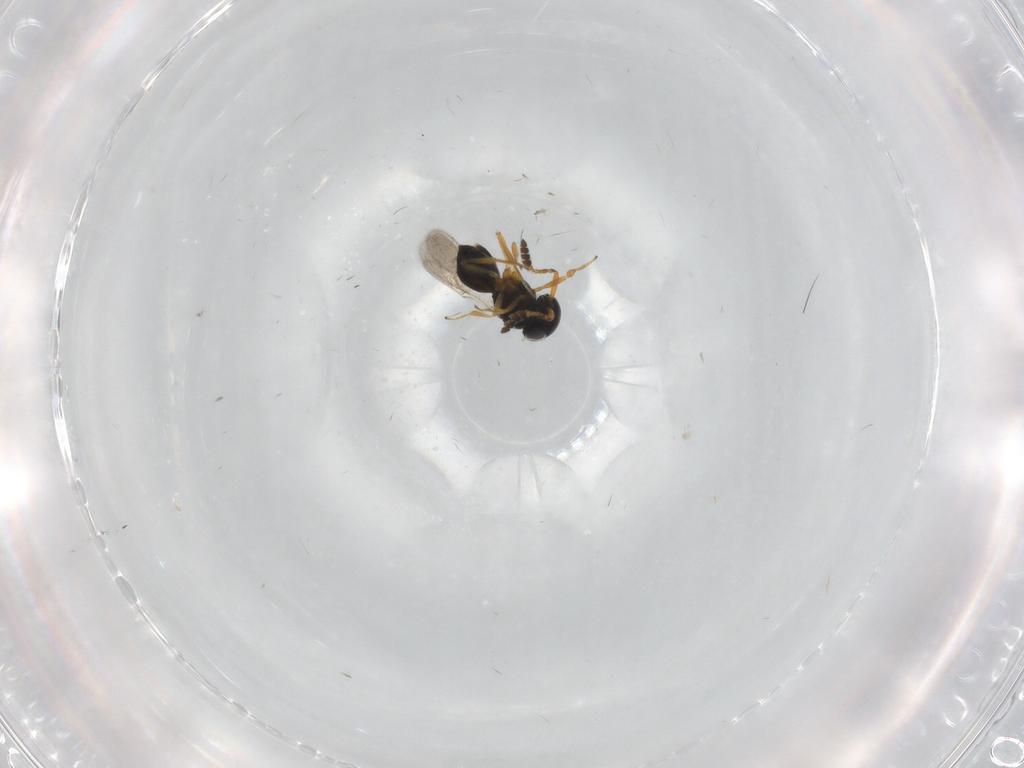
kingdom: Animalia
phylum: Arthropoda
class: Insecta
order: Hymenoptera
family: Scelionidae
